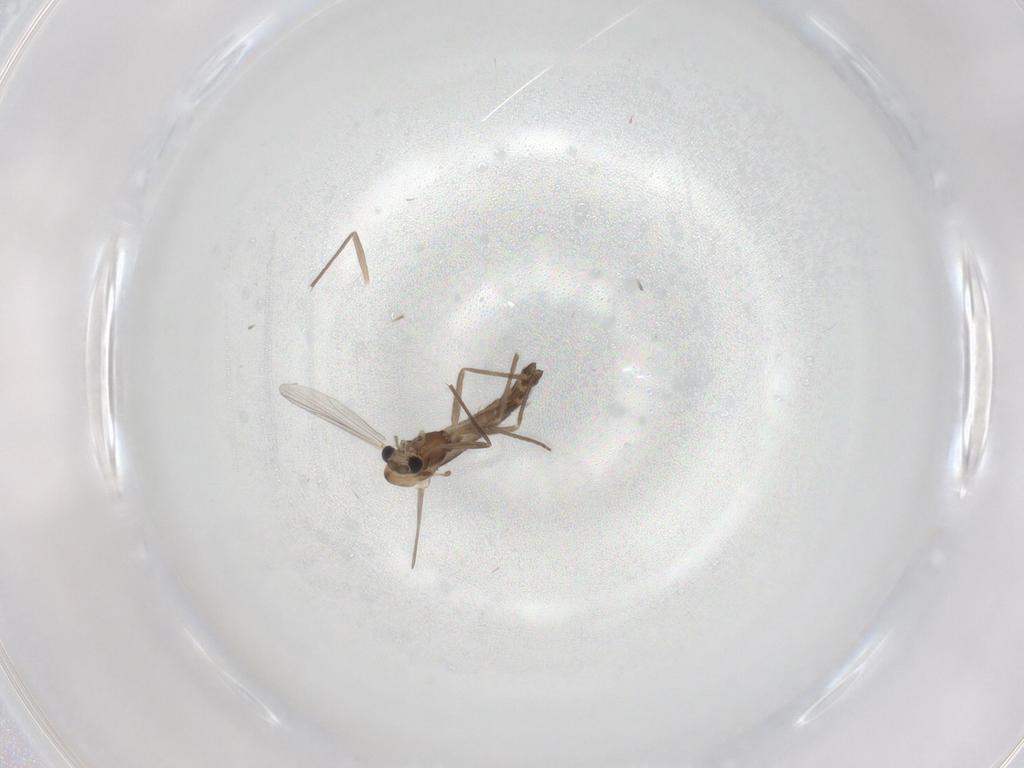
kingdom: Animalia
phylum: Arthropoda
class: Insecta
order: Diptera
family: Chironomidae
